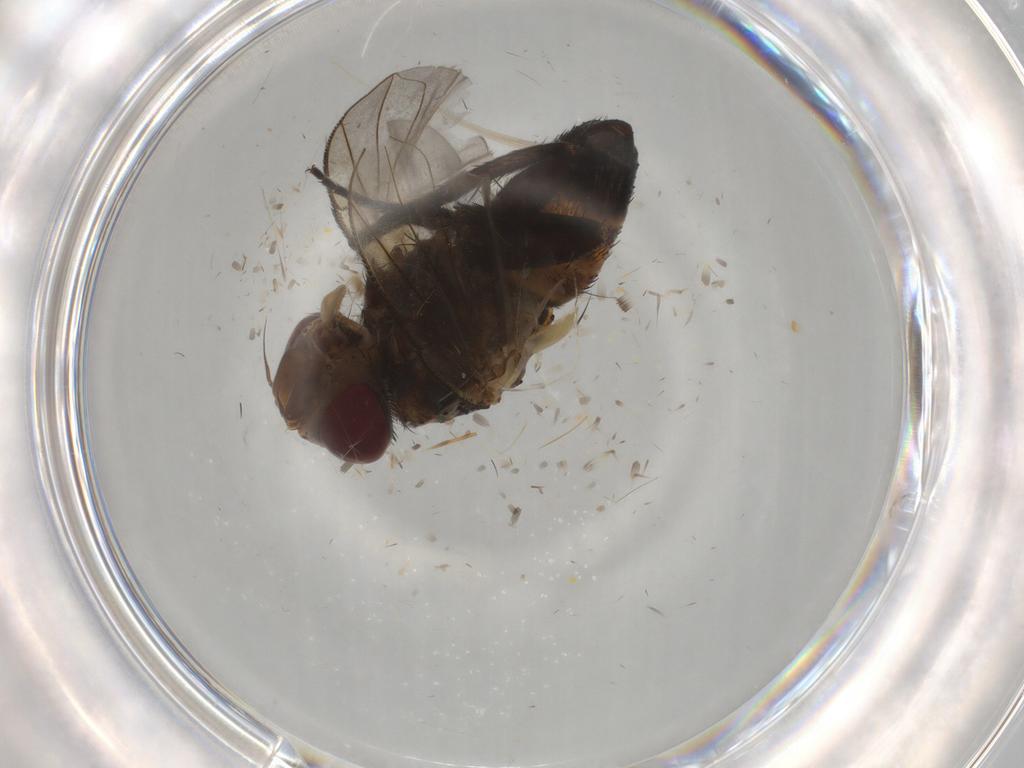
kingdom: Animalia
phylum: Arthropoda
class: Insecta
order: Diptera
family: Cecidomyiidae
